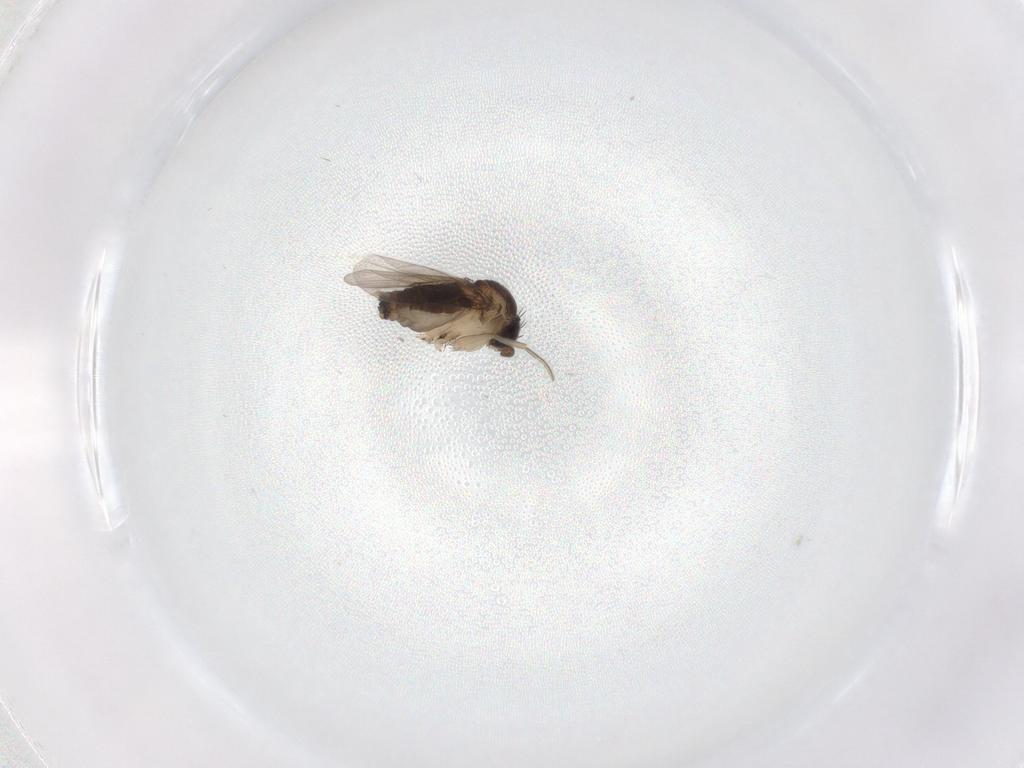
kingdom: Animalia
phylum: Arthropoda
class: Insecta
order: Diptera
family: Phoridae
